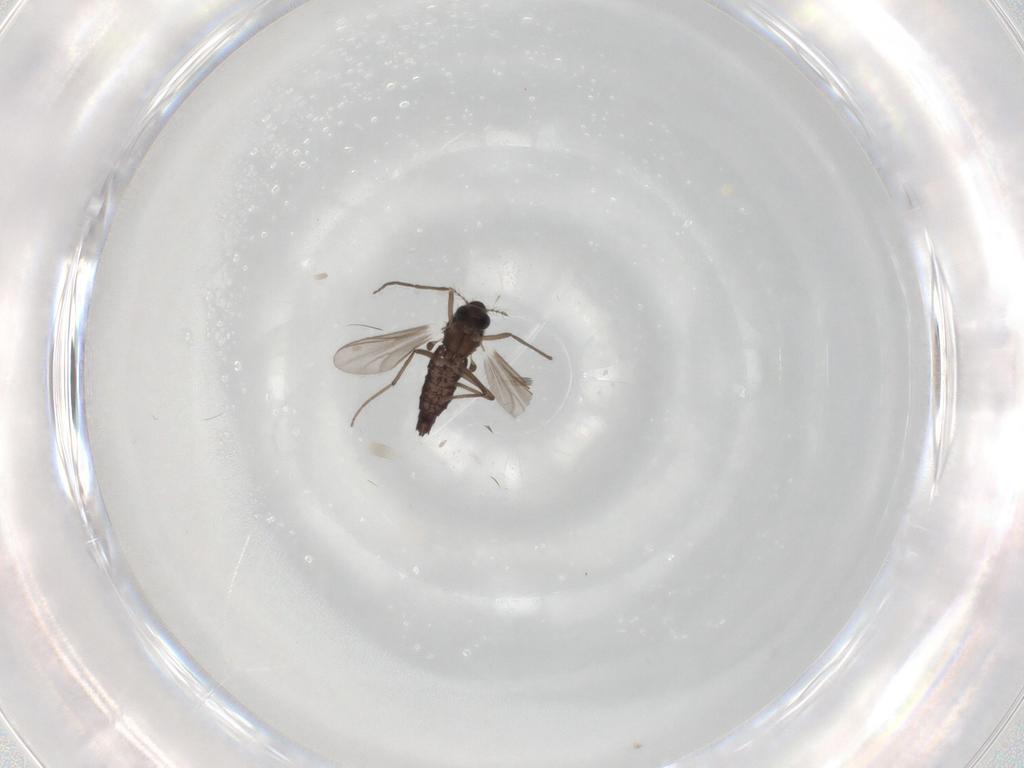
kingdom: Animalia
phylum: Arthropoda
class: Insecta
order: Diptera
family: Chironomidae
